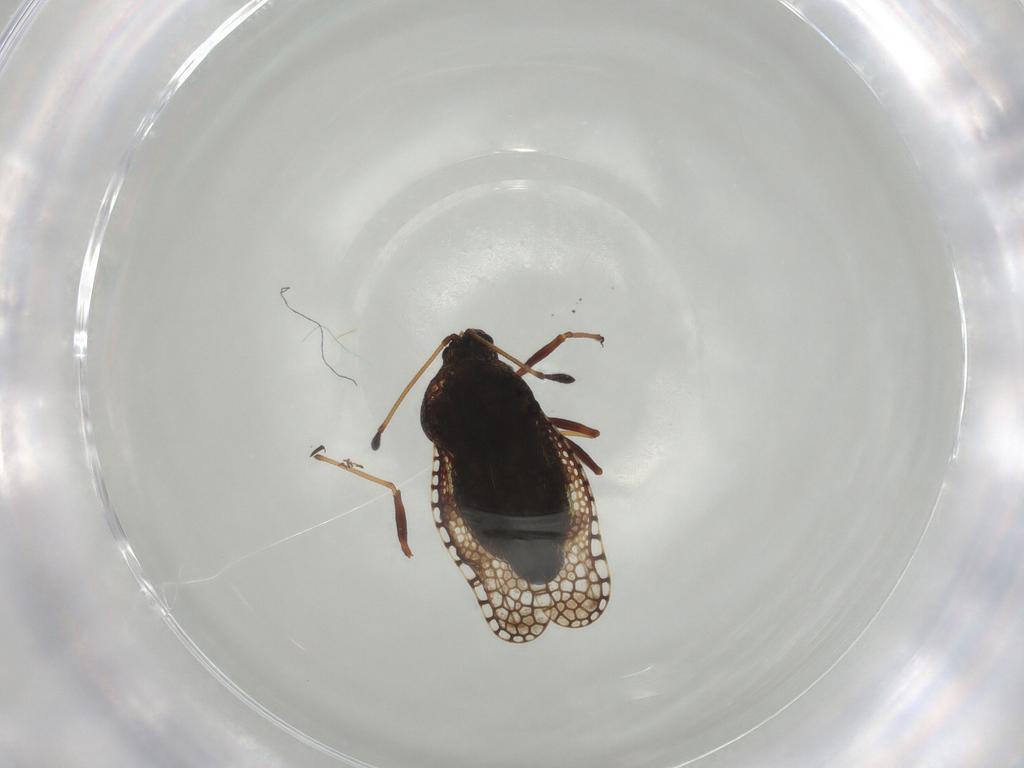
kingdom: Animalia
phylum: Arthropoda
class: Insecta
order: Hemiptera
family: Tingidae
